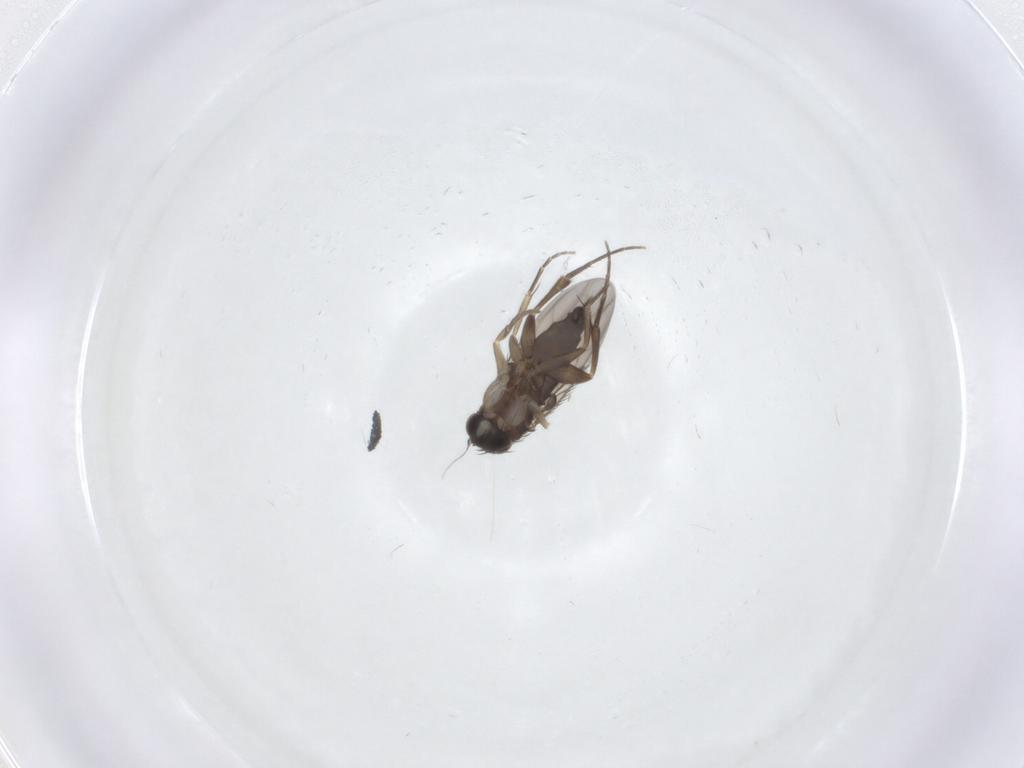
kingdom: Animalia
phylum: Arthropoda
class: Insecta
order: Diptera
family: Phoridae
